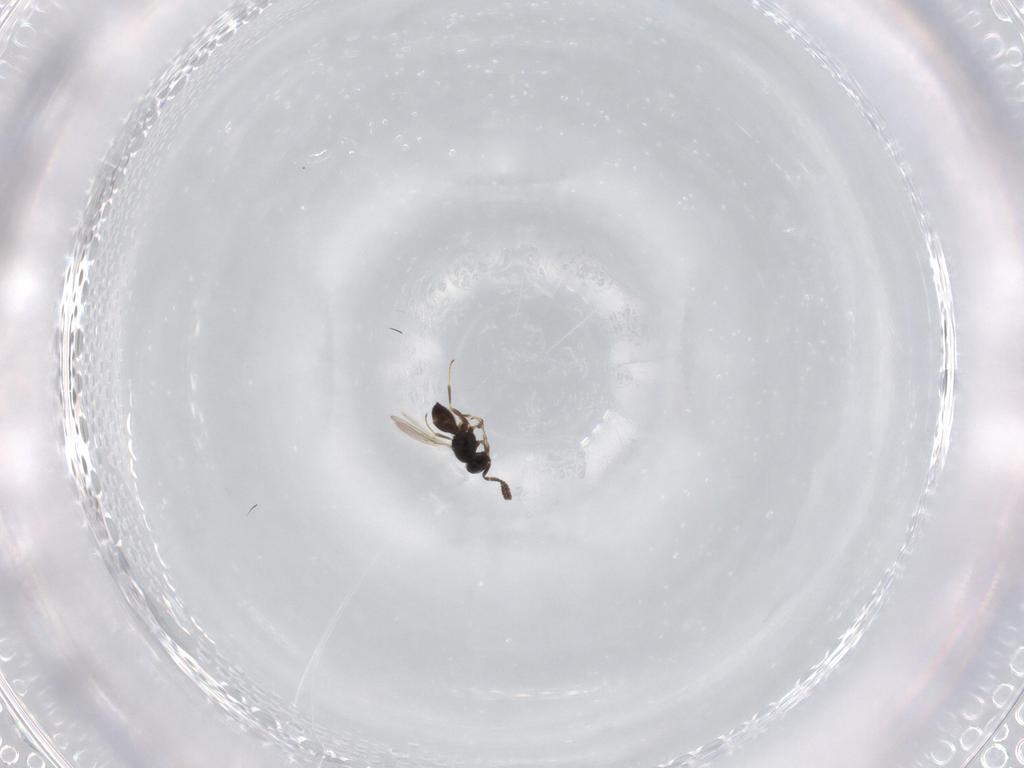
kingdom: Animalia
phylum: Arthropoda
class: Insecta
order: Hymenoptera
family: Scelionidae
